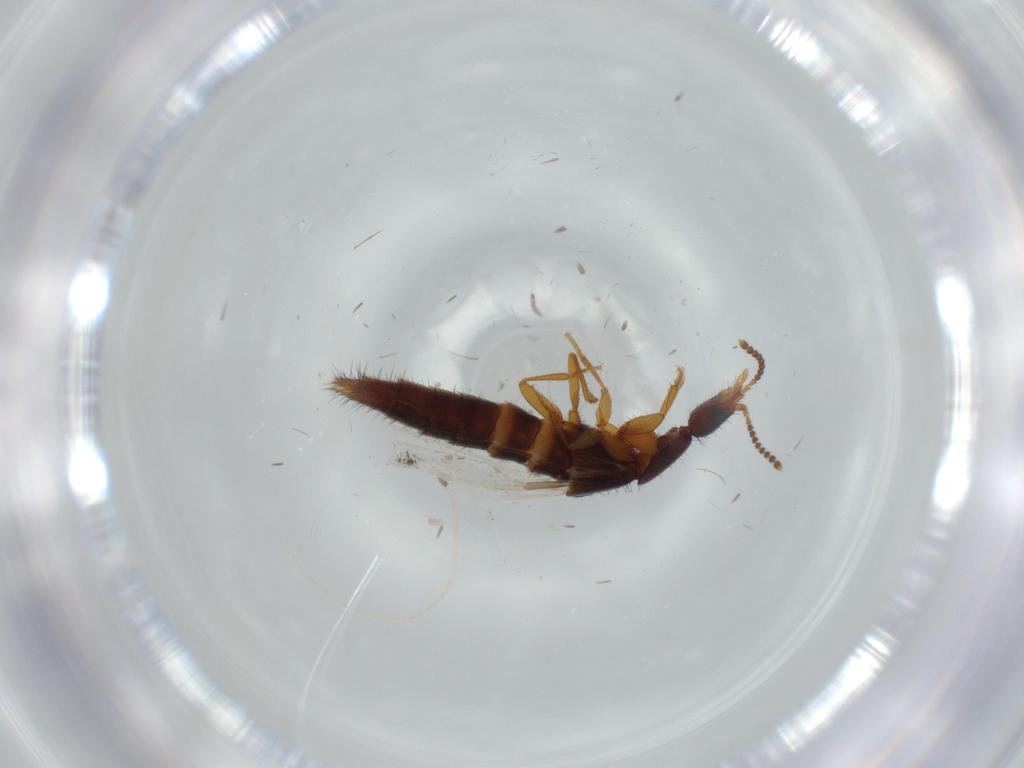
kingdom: Animalia
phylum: Arthropoda
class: Insecta
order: Coleoptera
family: Staphylinidae
